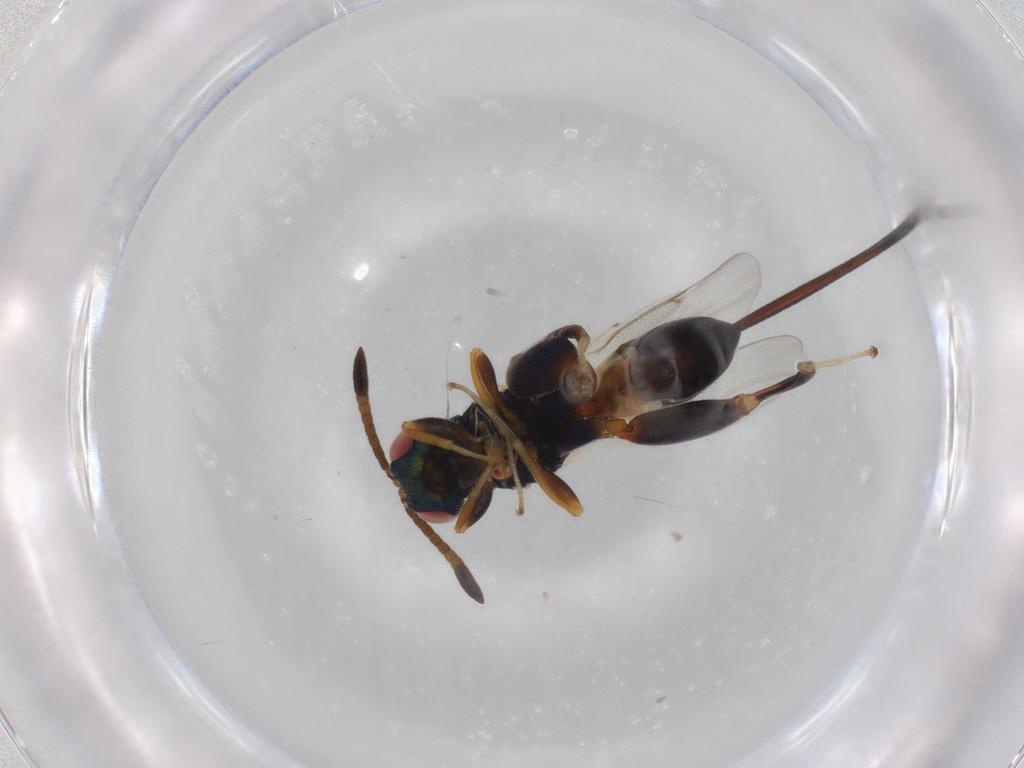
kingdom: Animalia
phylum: Arthropoda
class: Insecta
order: Hymenoptera
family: Torymidae
